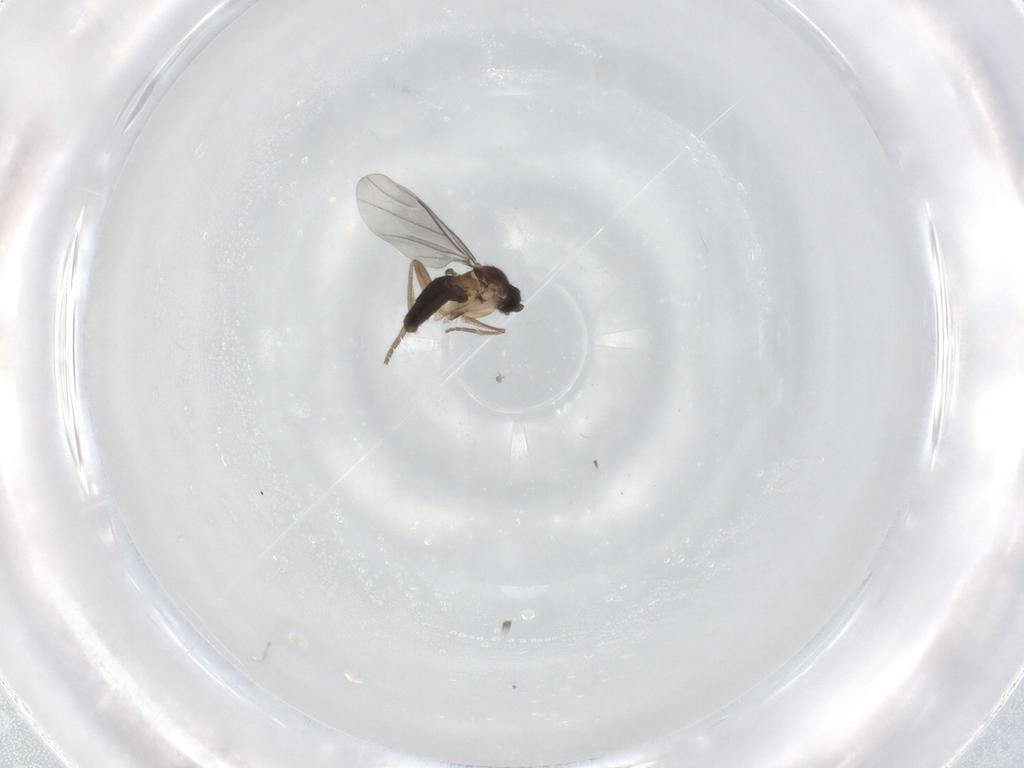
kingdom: Animalia
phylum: Arthropoda
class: Insecta
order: Diptera
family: Phoridae
